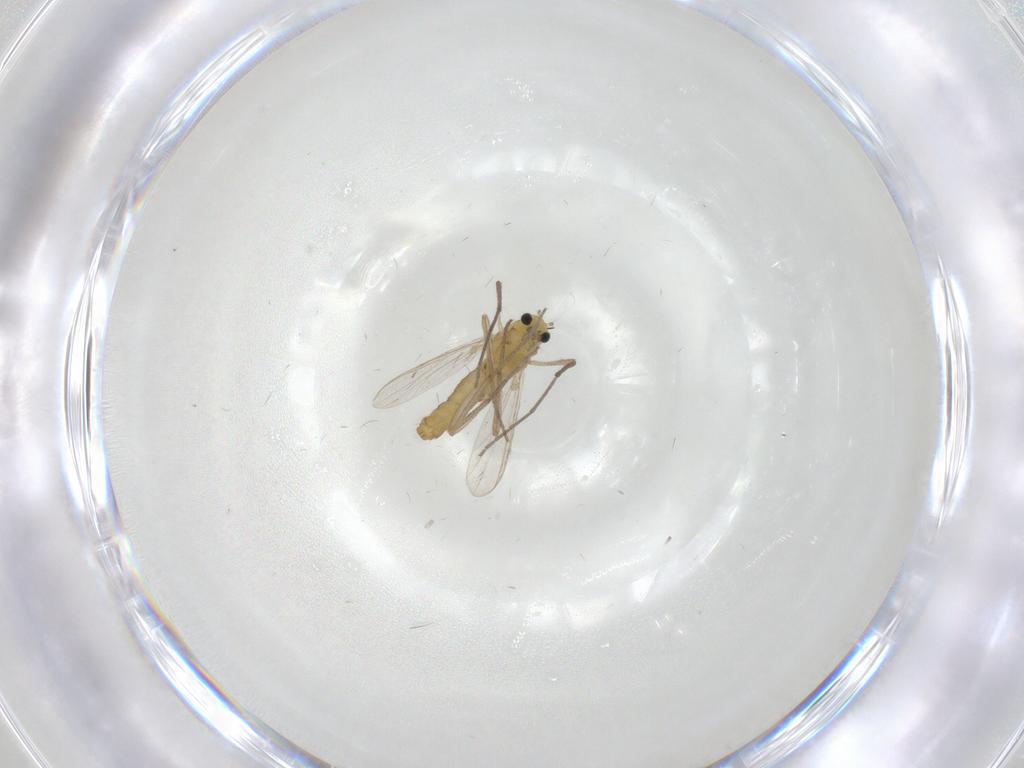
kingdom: Animalia
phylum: Arthropoda
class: Insecta
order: Diptera
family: Chironomidae
